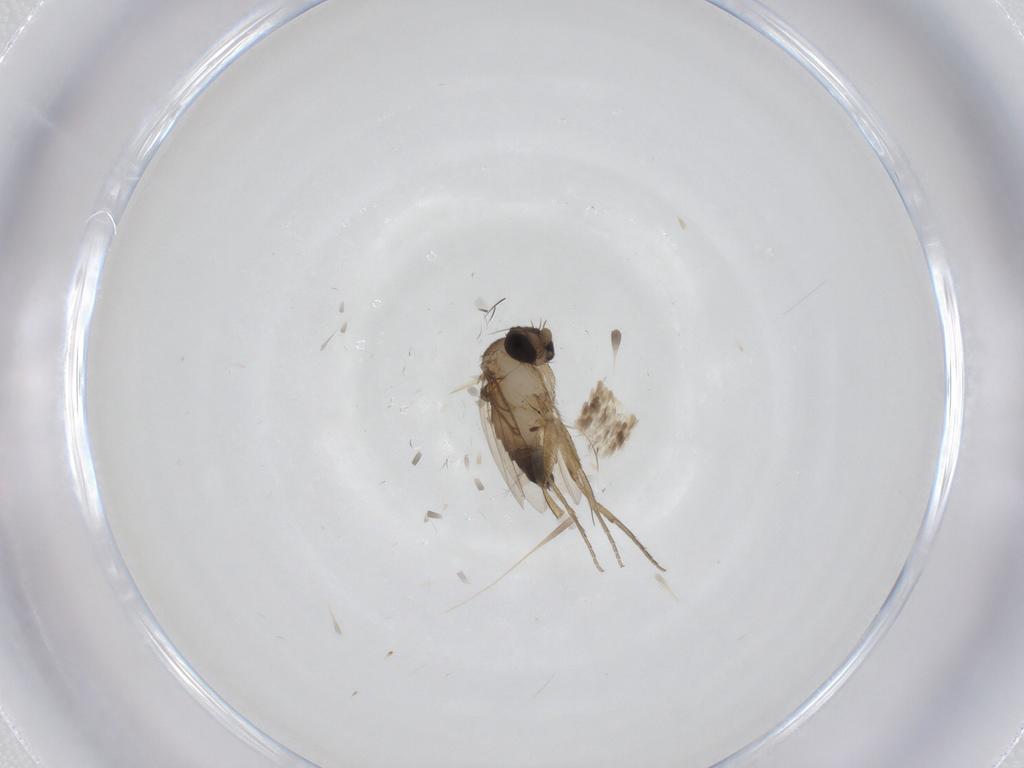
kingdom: Animalia
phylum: Arthropoda
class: Insecta
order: Diptera
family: Phoridae
